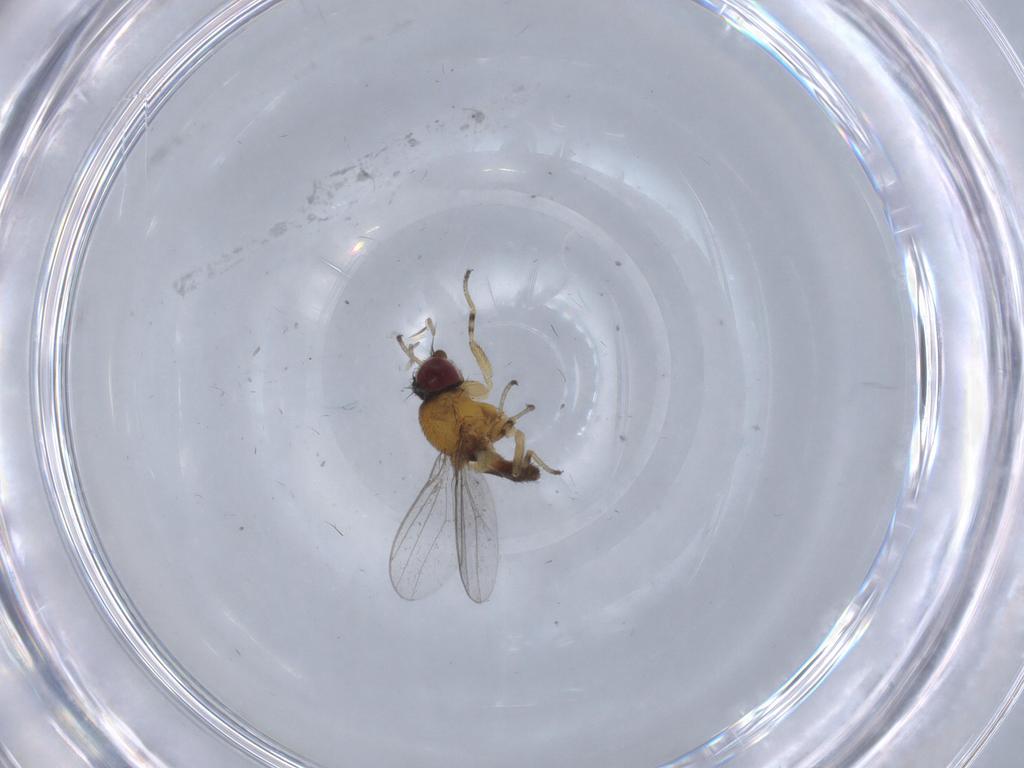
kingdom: Animalia
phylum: Arthropoda
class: Insecta
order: Diptera
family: Chloropidae
